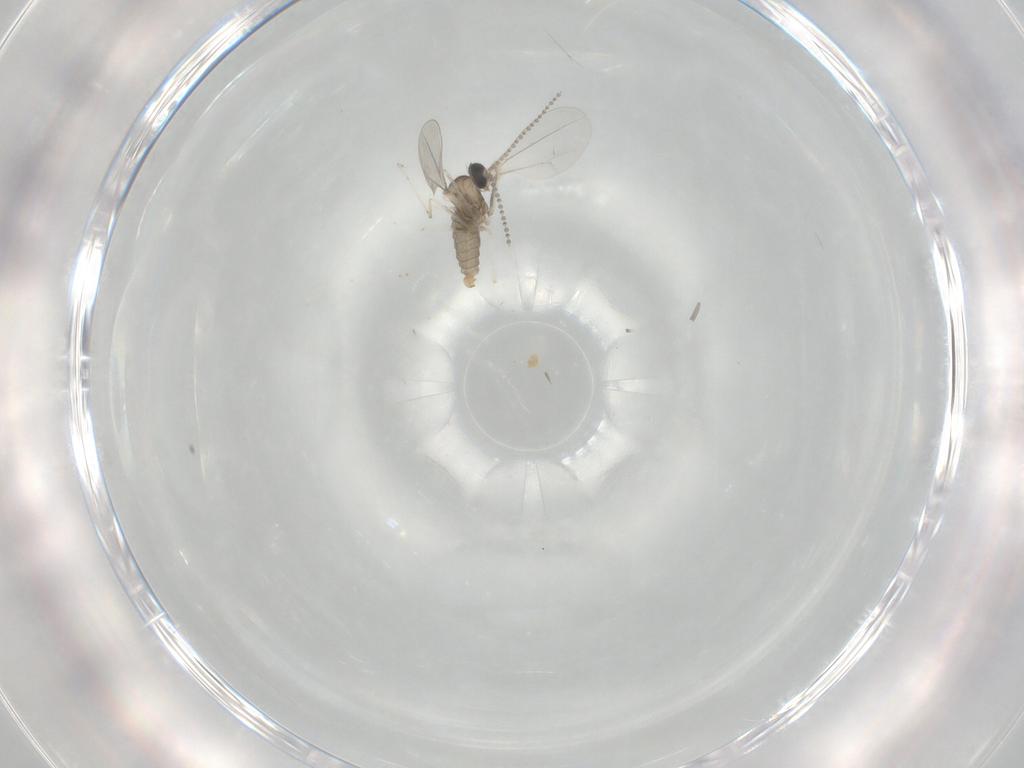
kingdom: Animalia
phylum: Arthropoda
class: Insecta
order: Diptera
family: Cecidomyiidae
